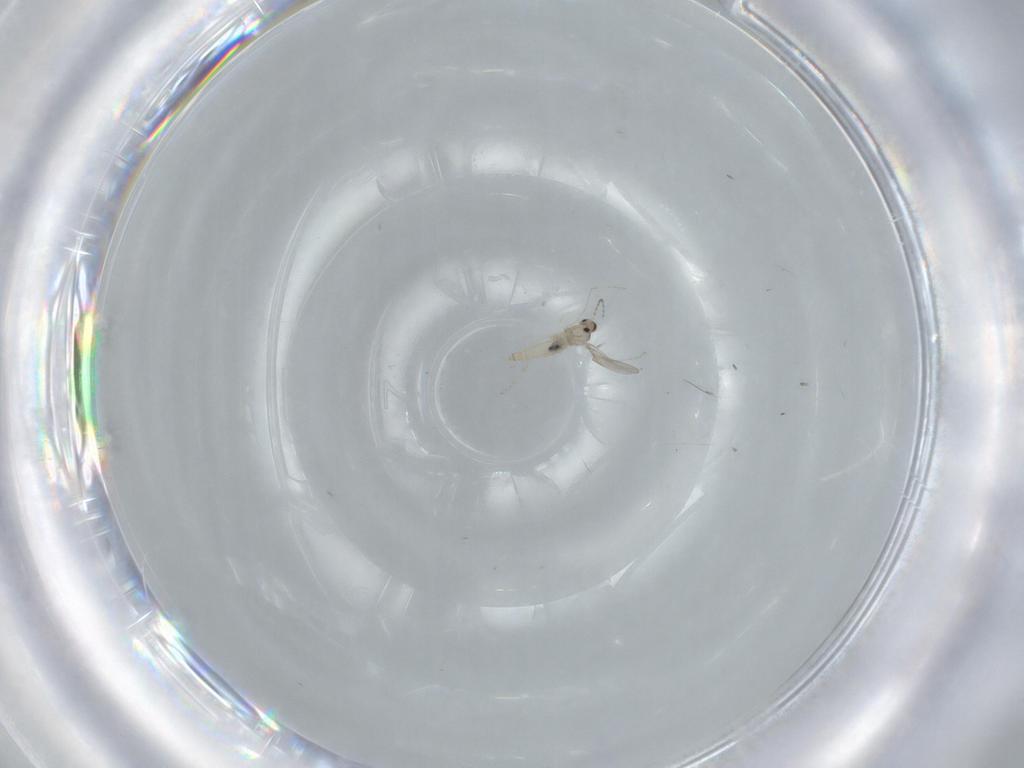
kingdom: Animalia
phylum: Arthropoda
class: Insecta
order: Diptera
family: Cecidomyiidae
